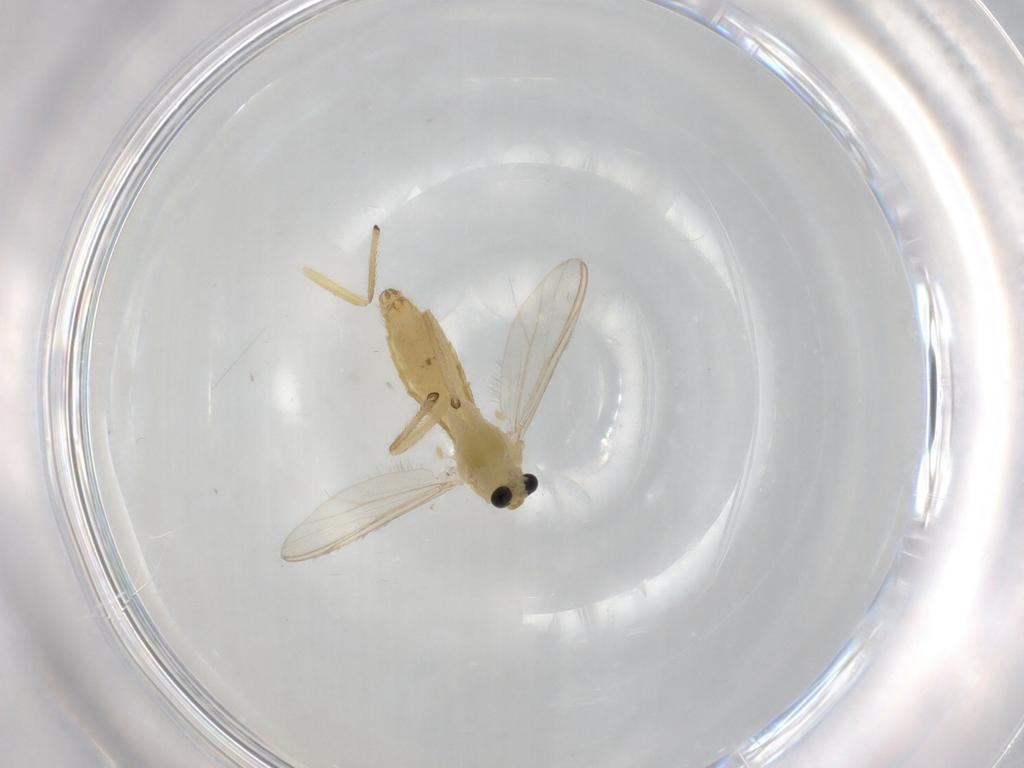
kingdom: Animalia
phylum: Arthropoda
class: Insecta
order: Diptera
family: Chironomidae
